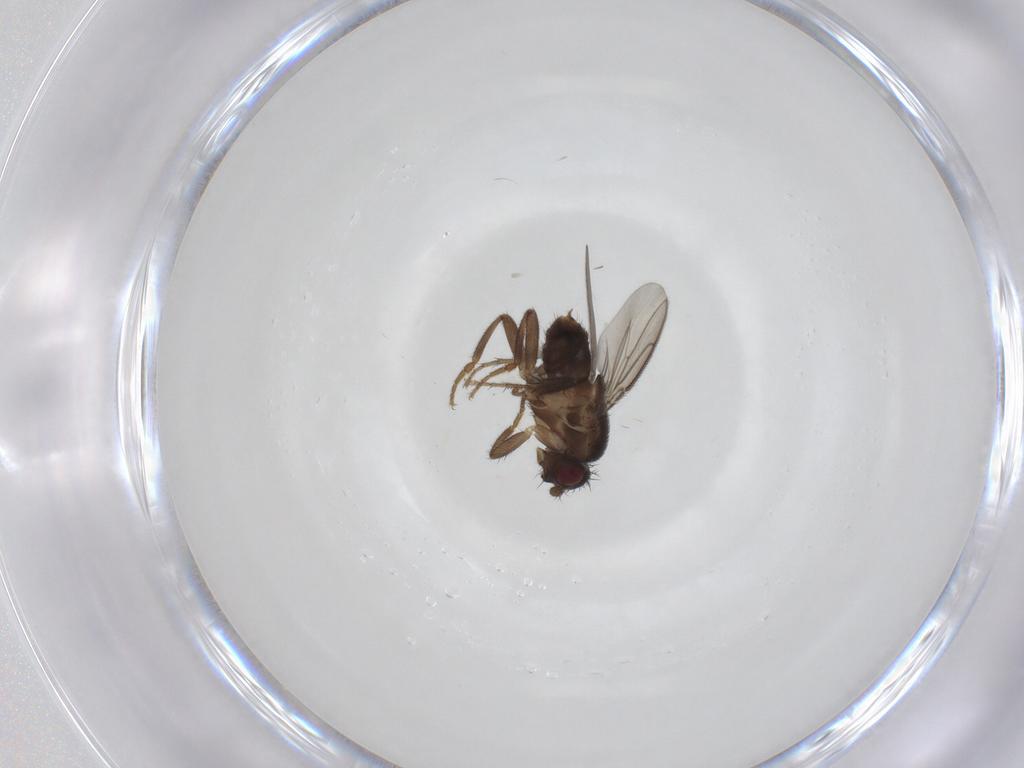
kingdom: Animalia
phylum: Arthropoda
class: Insecta
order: Diptera
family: Sphaeroceridae
